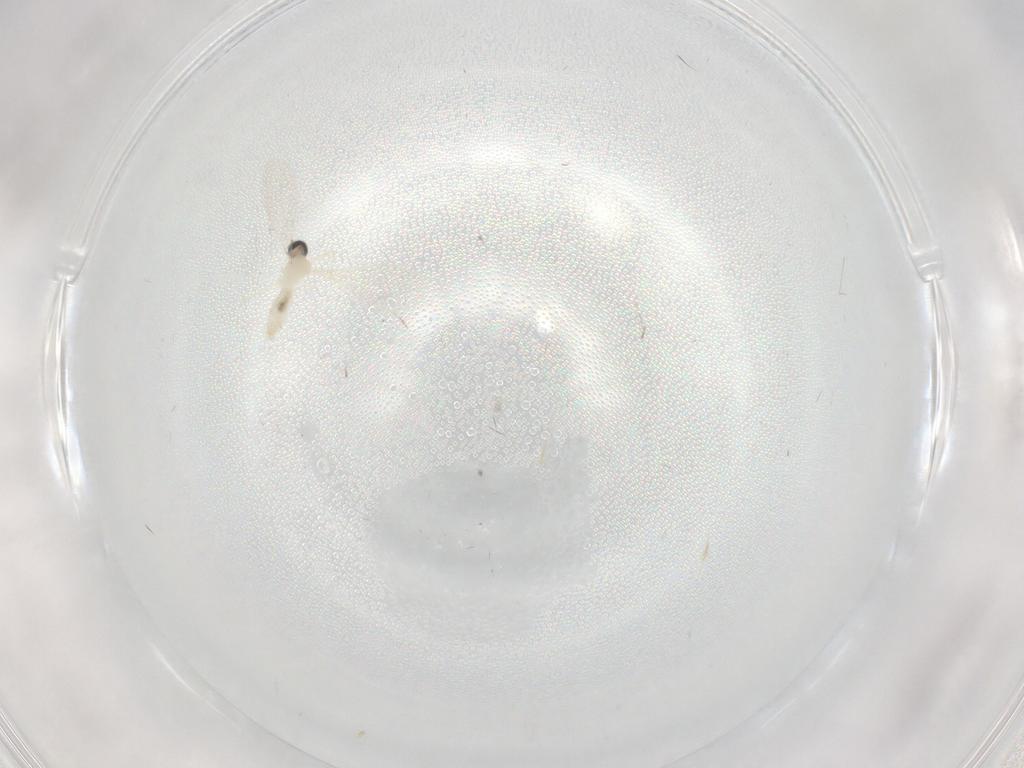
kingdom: Animalia
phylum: Arthropoda
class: Insecta
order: Diptera
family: Cecidomyiidae
